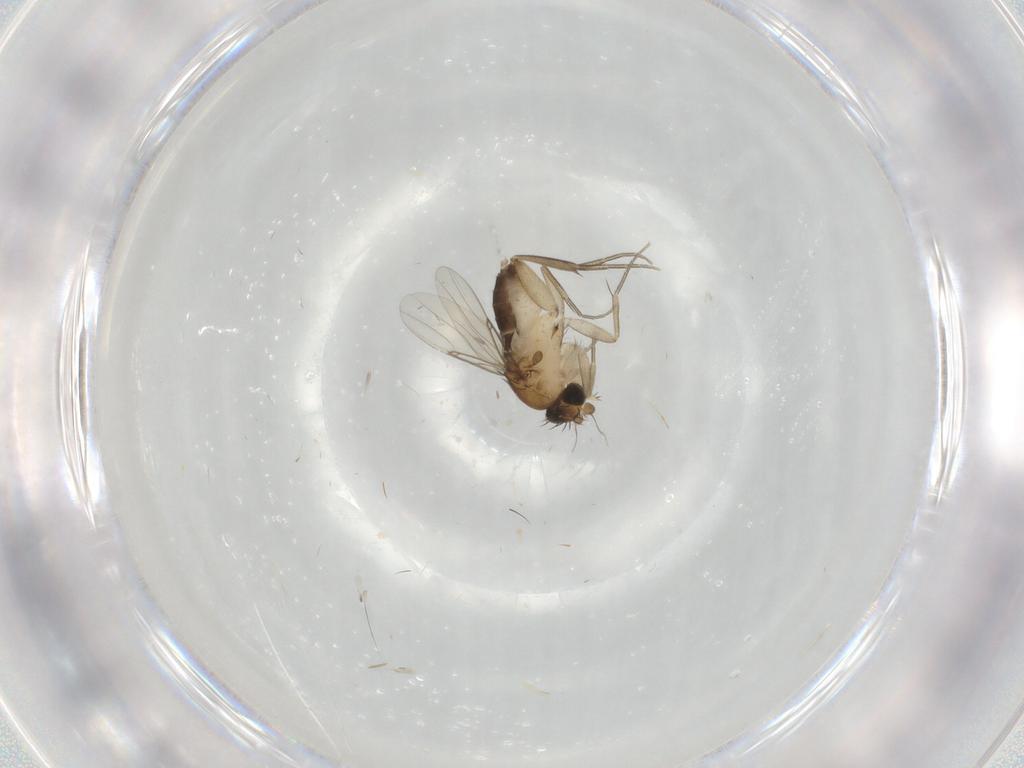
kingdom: Animalia
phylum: Arthropoda
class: Insecta
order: Diptera
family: Phoridae
